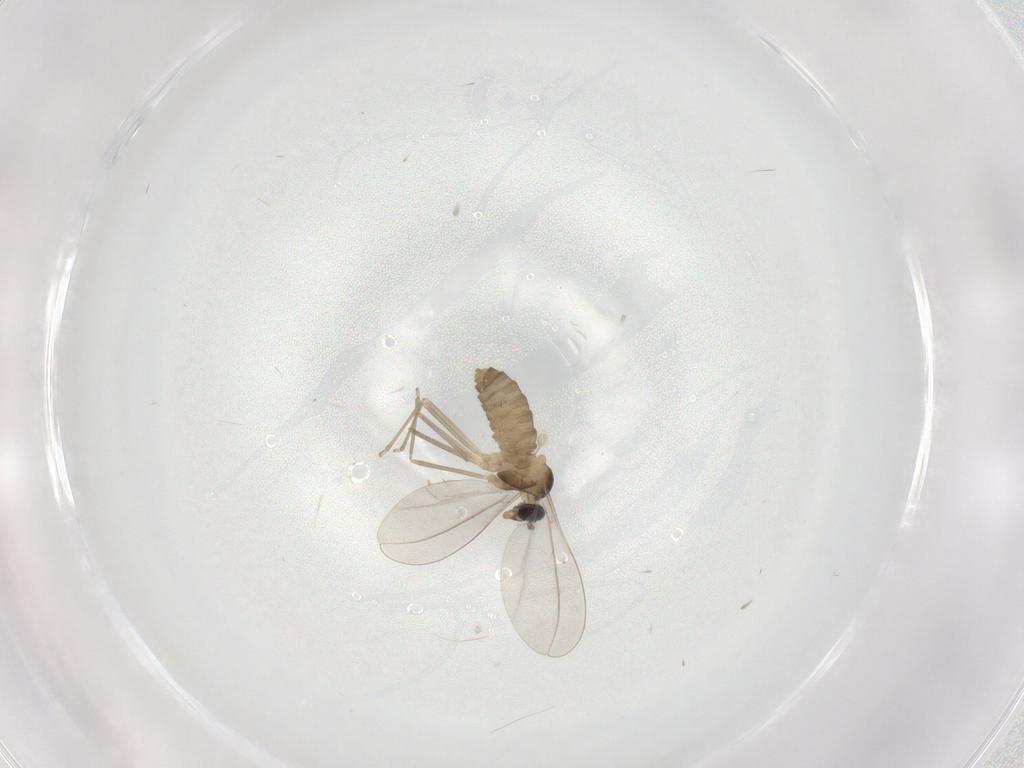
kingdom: Animalia
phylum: Arthropoda
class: Insecta
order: Diptera
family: Cecidomyiidae
